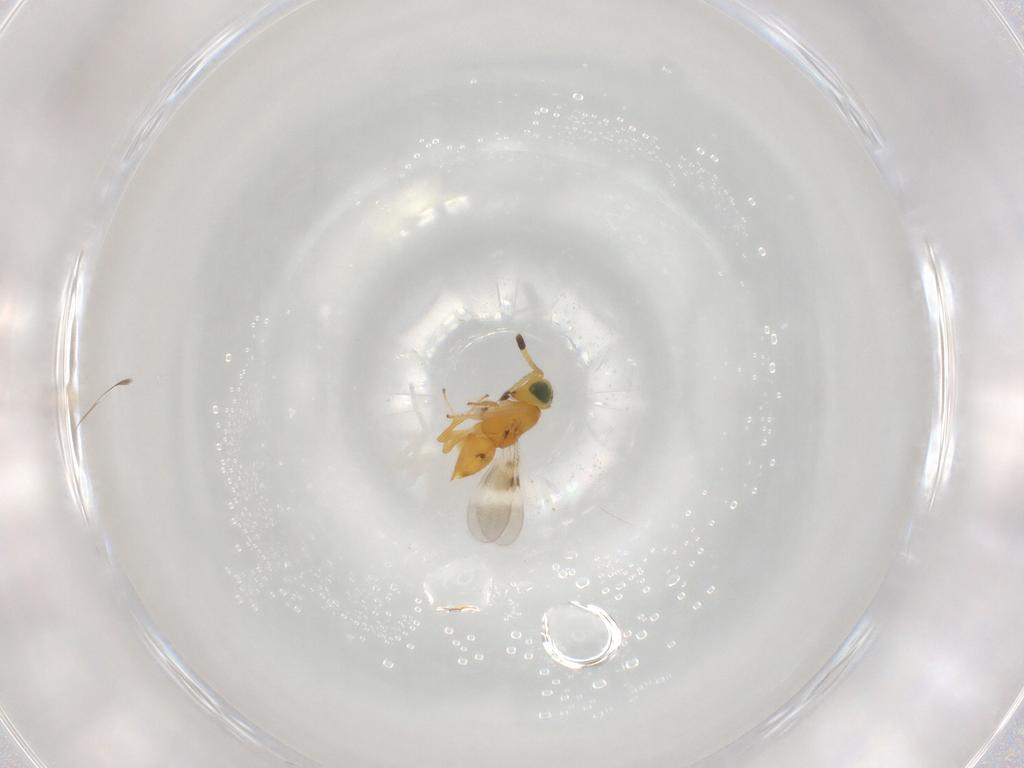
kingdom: Animalia
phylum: Arthropoda
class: Insecta
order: Hymenoptera
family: Encyrtidae
